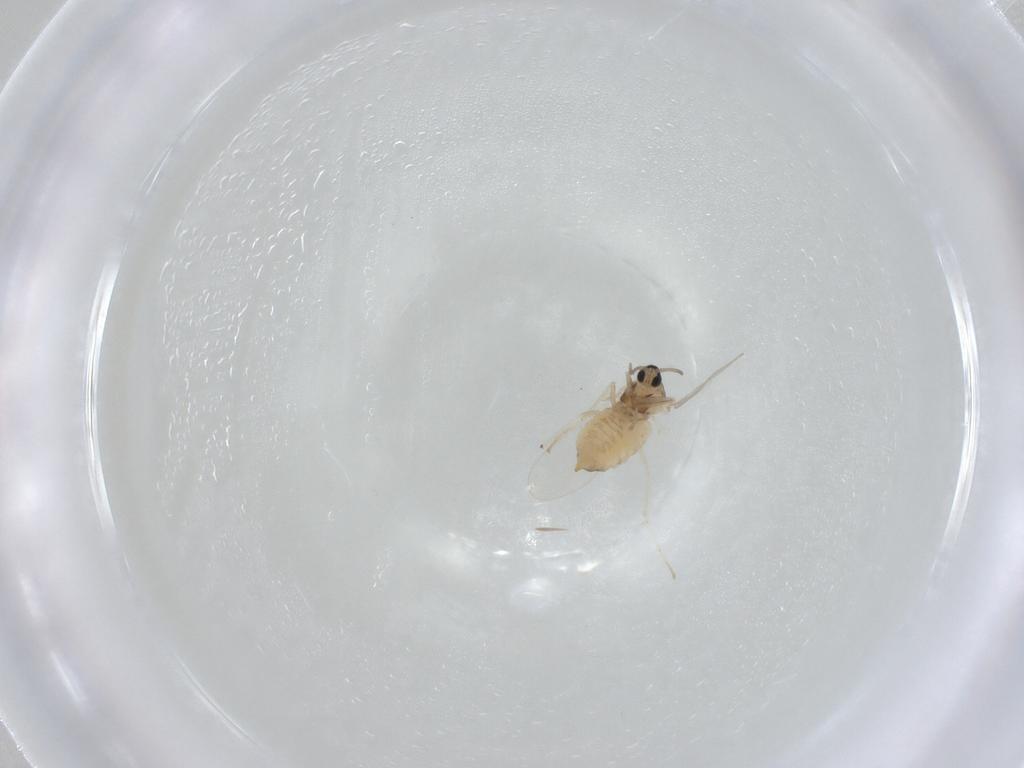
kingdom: Animalia
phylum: Arthropoda
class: Insecta
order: Diptera
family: Cecidomyiidae
